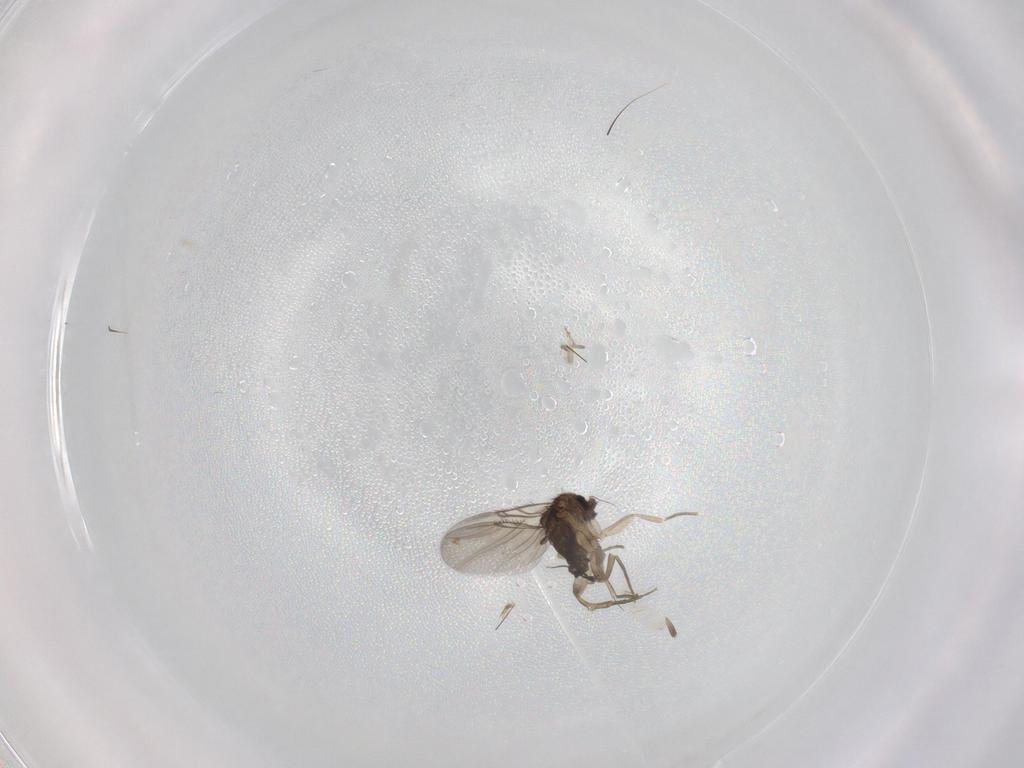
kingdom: Animalia
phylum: Arthropoda
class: Insecta
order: Diptera
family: Phoridae
